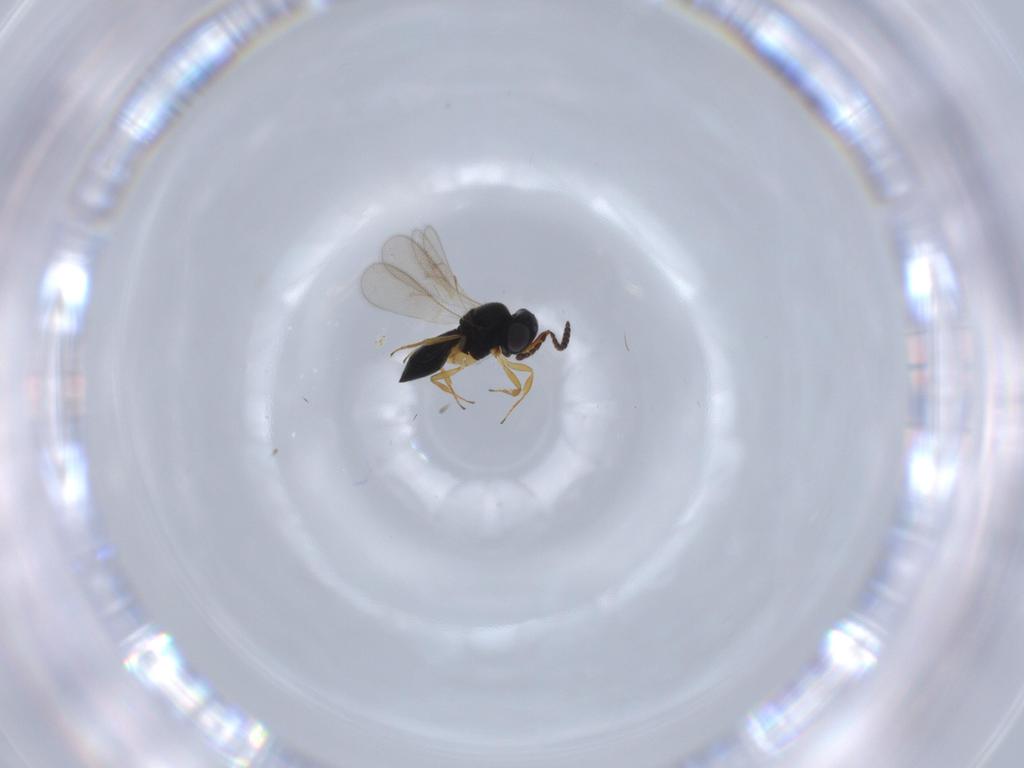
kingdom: Animalia
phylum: Arthropoda
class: Insecta
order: Hymenoptera
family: Scelionidae
